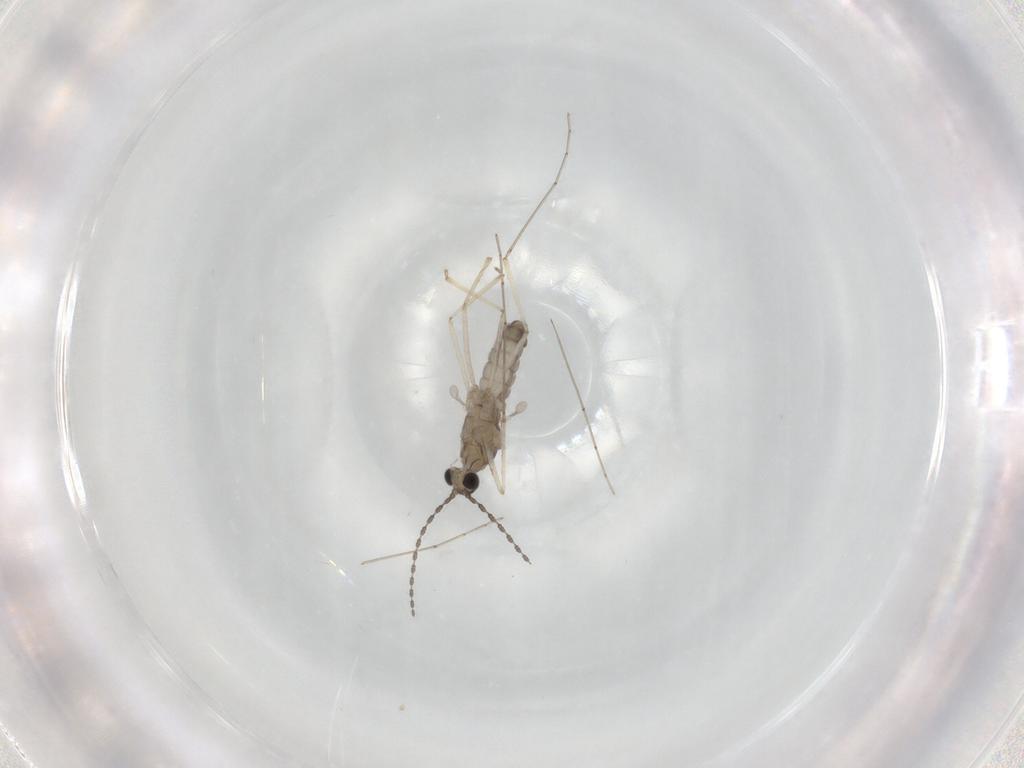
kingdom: Animalia
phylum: Arthropoda
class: Insecta
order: Diptera
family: Cecidomyiidae
